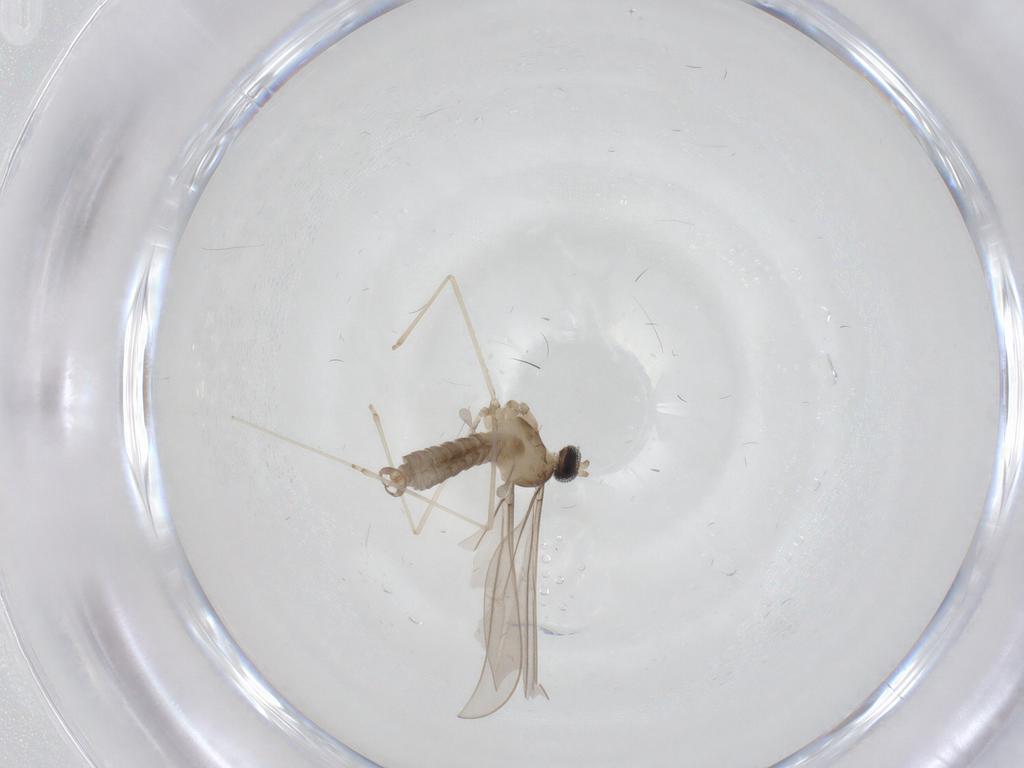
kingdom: Animalia
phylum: Arthropoda
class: Insecta
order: Diptera
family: Cecidomyiidae
